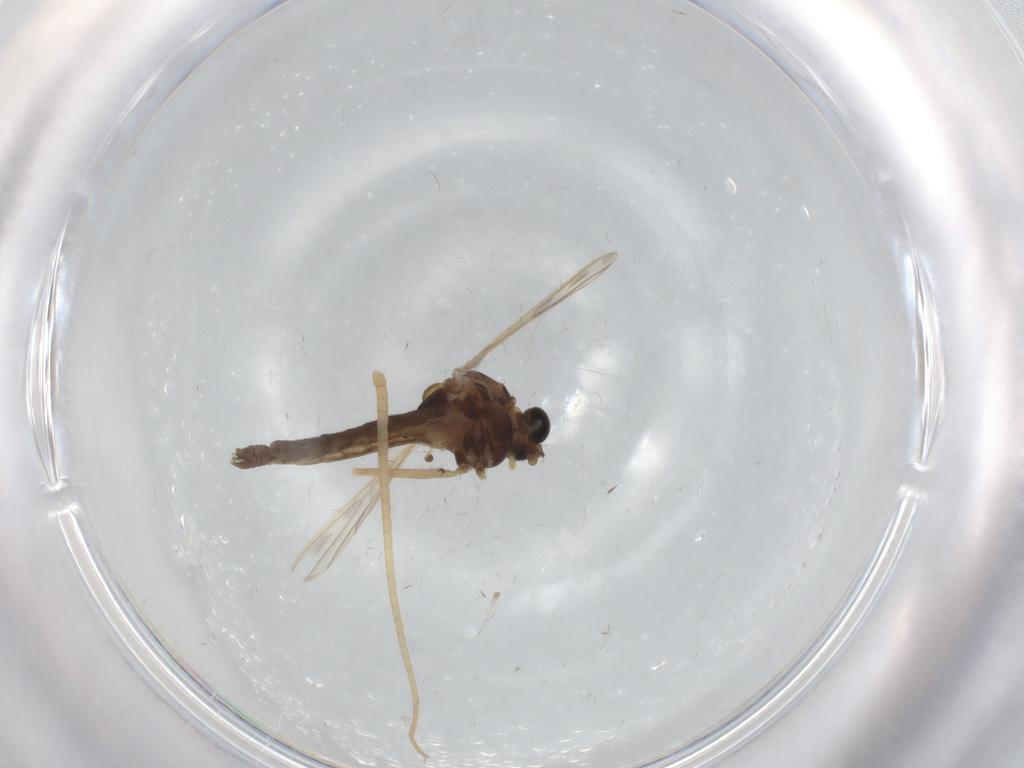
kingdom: Animalia
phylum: Arthropoda
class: Insecta
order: Diptera
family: Chironomidae
